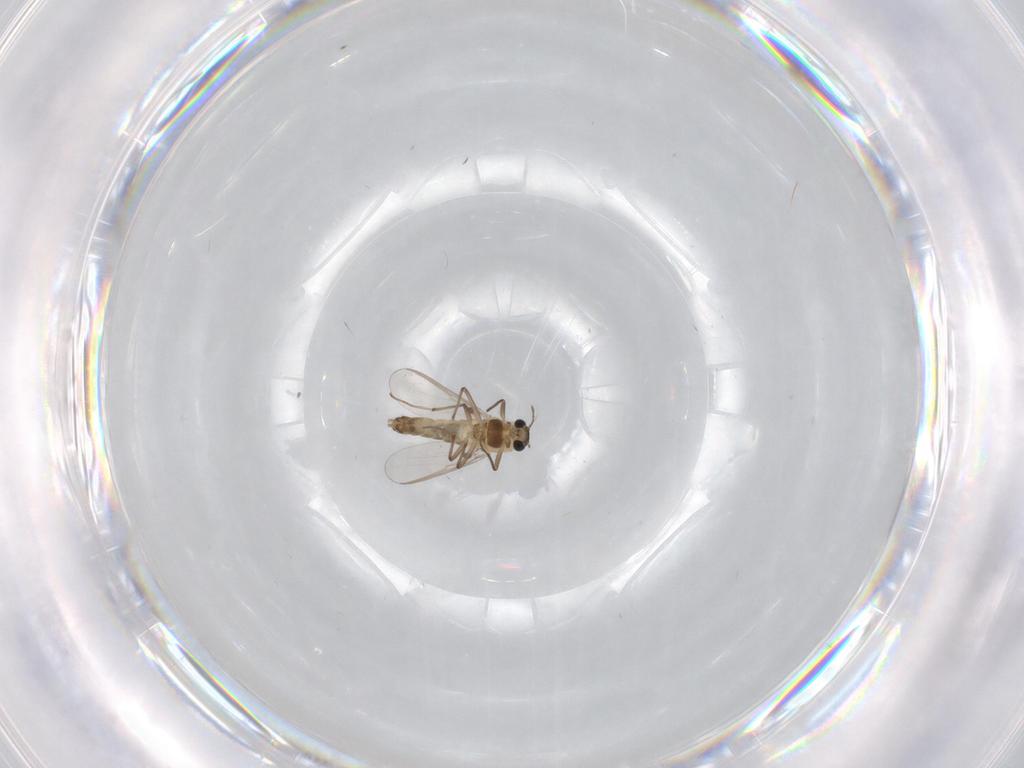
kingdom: Animalia
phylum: Arthropoda
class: Insecta
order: Diptera
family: Chironomidae
